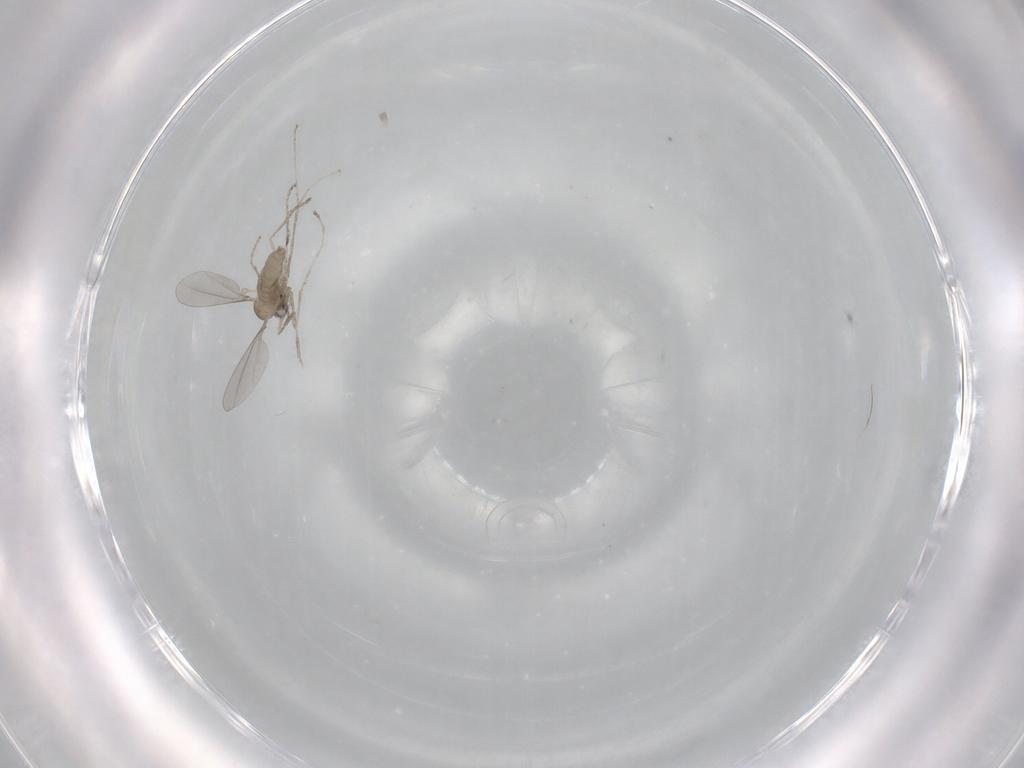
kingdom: Animalia
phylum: Arthropoda
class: Insecta
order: Diptera
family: Cecidomyiidae
